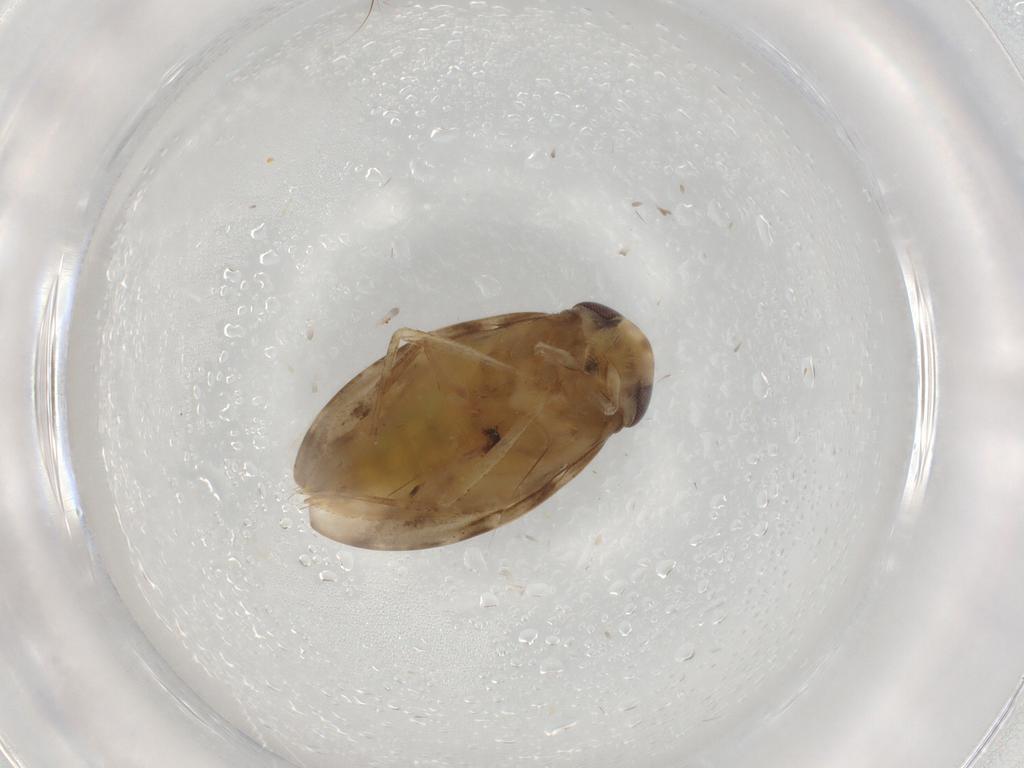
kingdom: Animalia
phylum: Arthropoda
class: Insecta
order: Hemiptera
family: Corixidae
